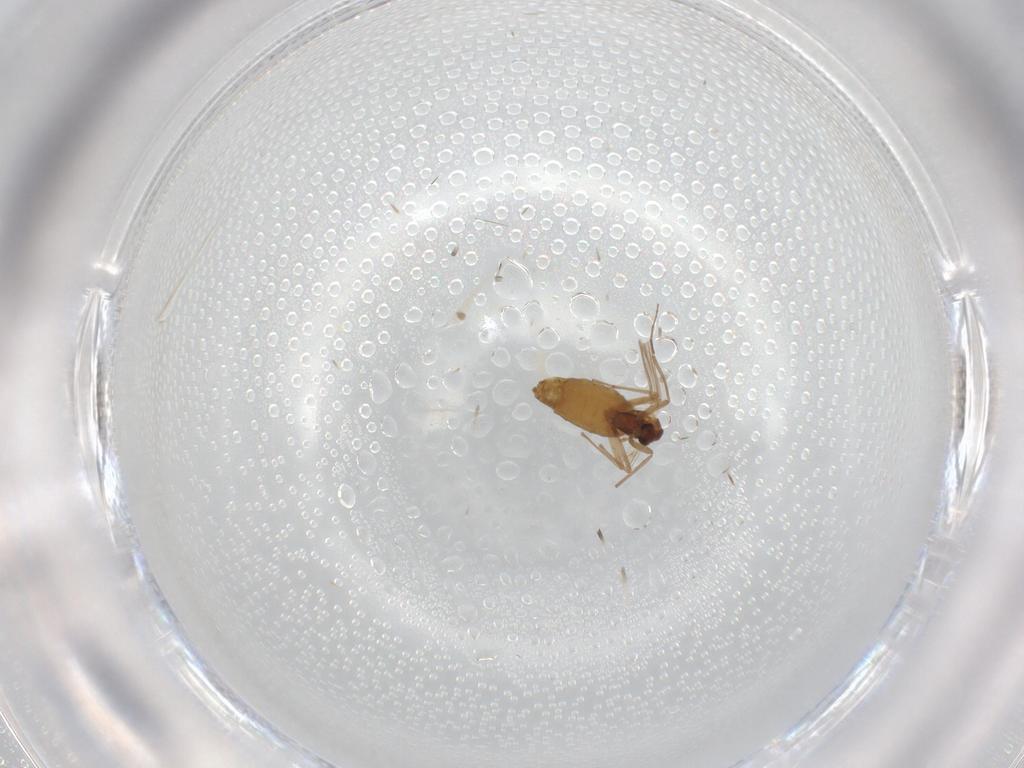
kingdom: Animalia
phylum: Arthropoda
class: Insecta
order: Diptera
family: Chironomidae
